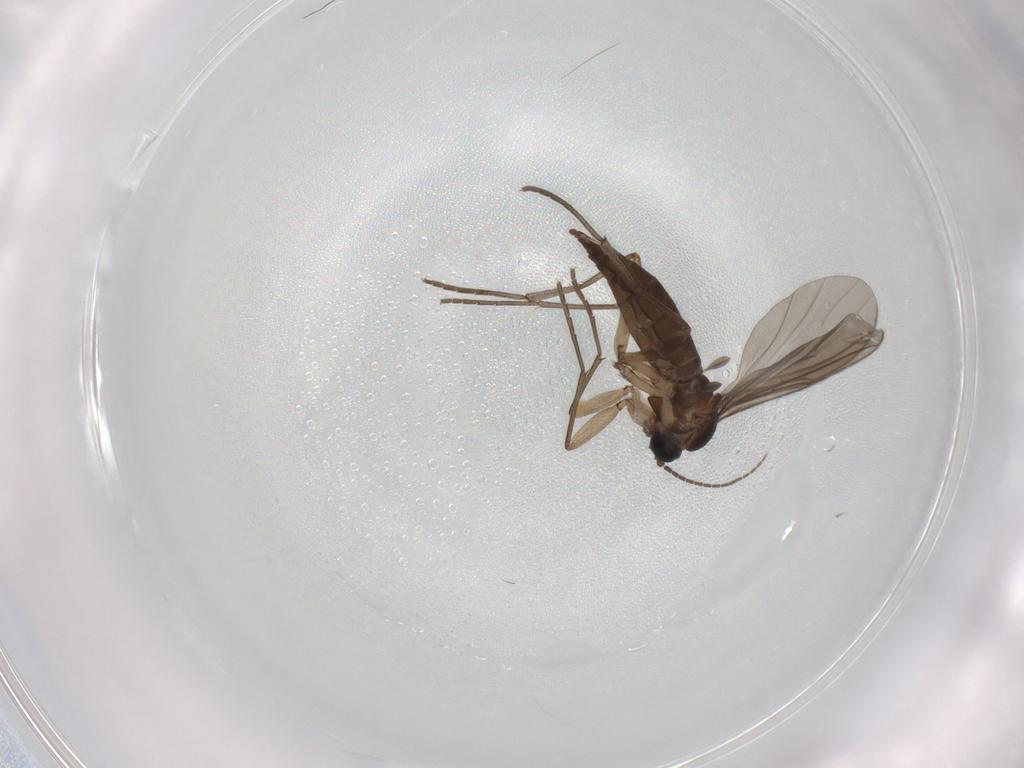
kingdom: Animalia
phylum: Arthropoda
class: Insecta
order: Diptera
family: Sciaridae
